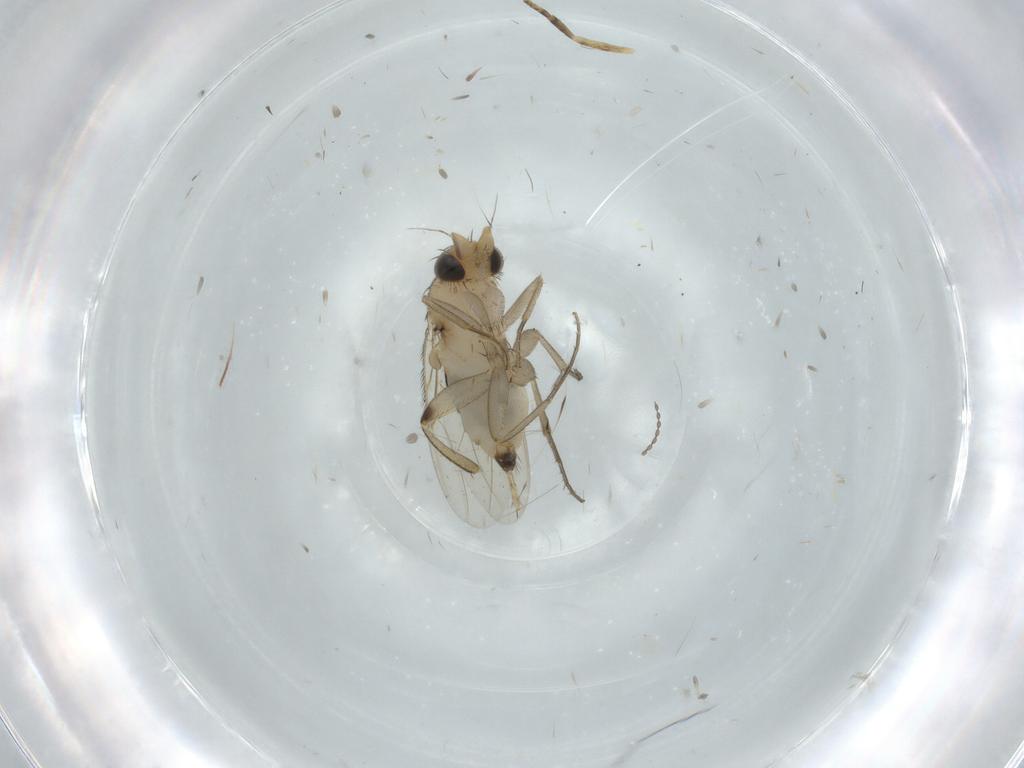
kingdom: Animalia
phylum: Arthropoda
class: Insecta
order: Diptera
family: Phoridae
